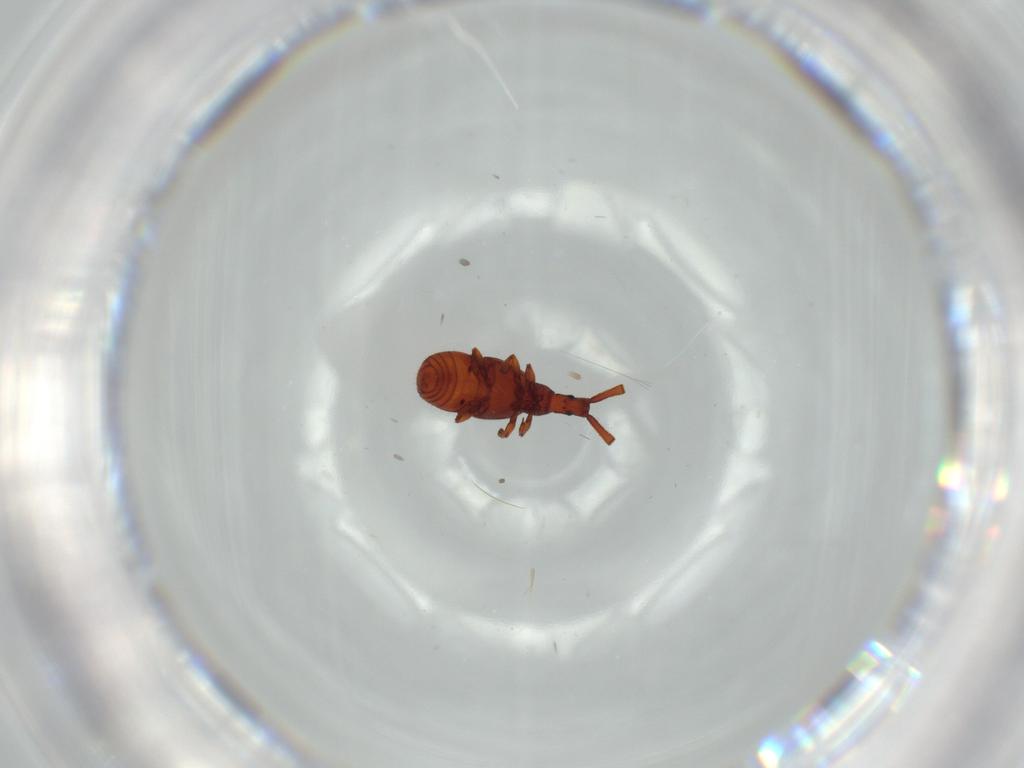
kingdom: Animalia
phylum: Arthropoda
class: Insecta
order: Coleoptera
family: Staphylinidae
